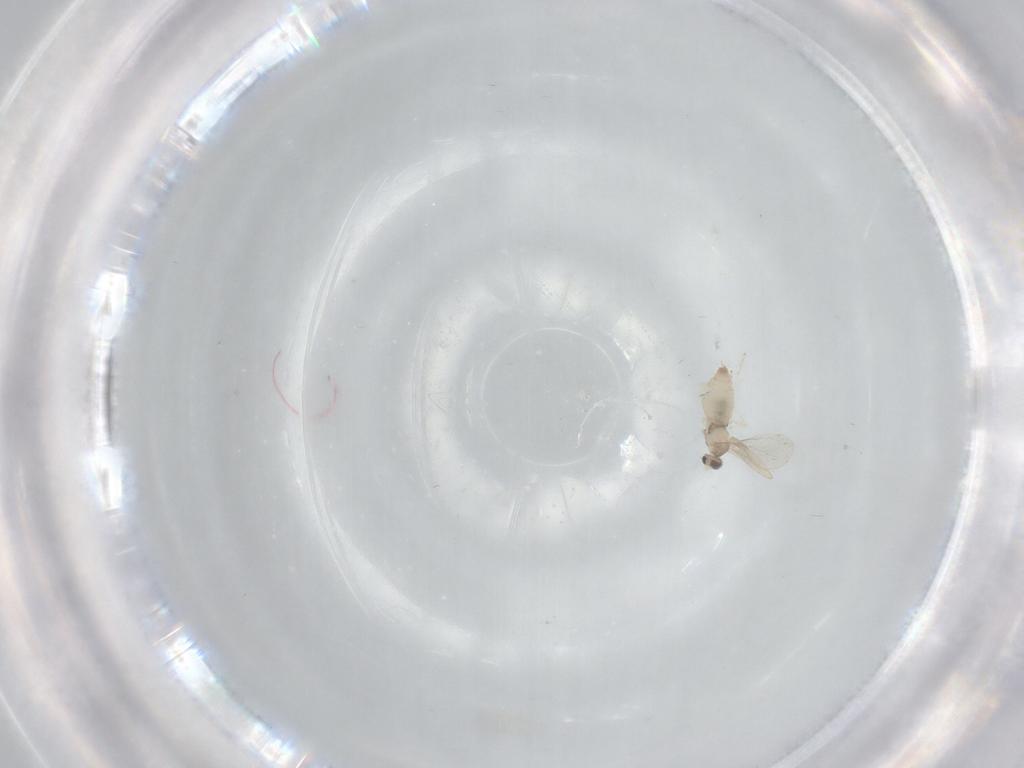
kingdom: Animalia
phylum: Arthropoda
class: Insecta
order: Diptera
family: Cecidomyiidae
